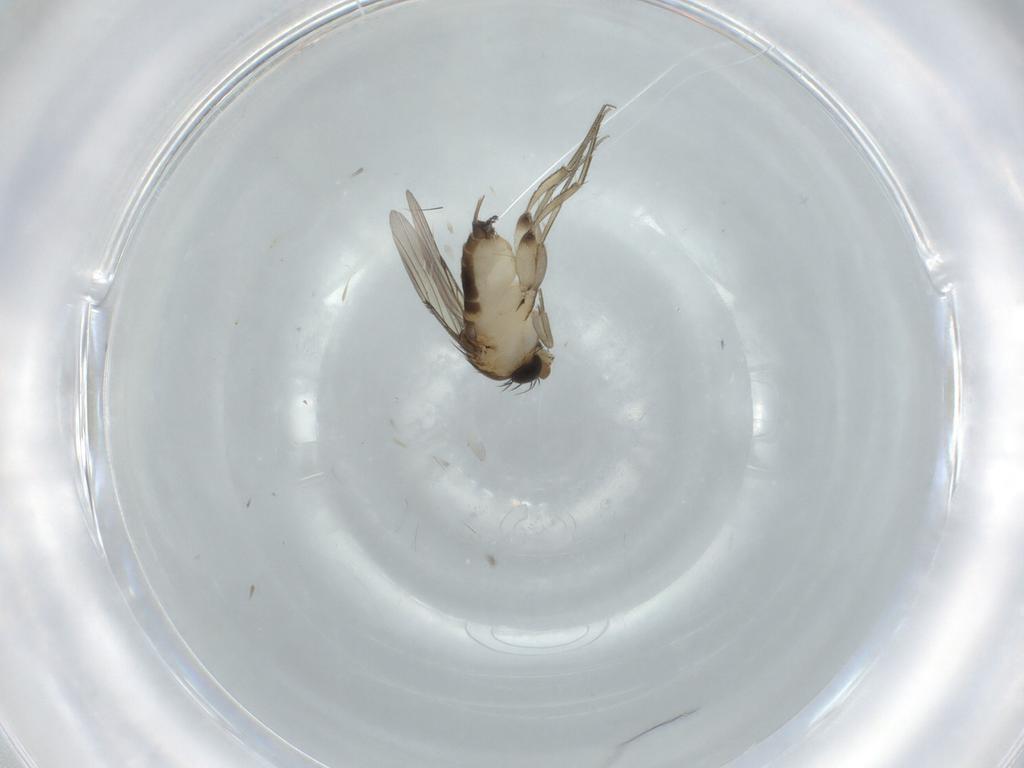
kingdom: Animalia
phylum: Arthropoda
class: Insecta
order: Diptera
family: Phoridae
